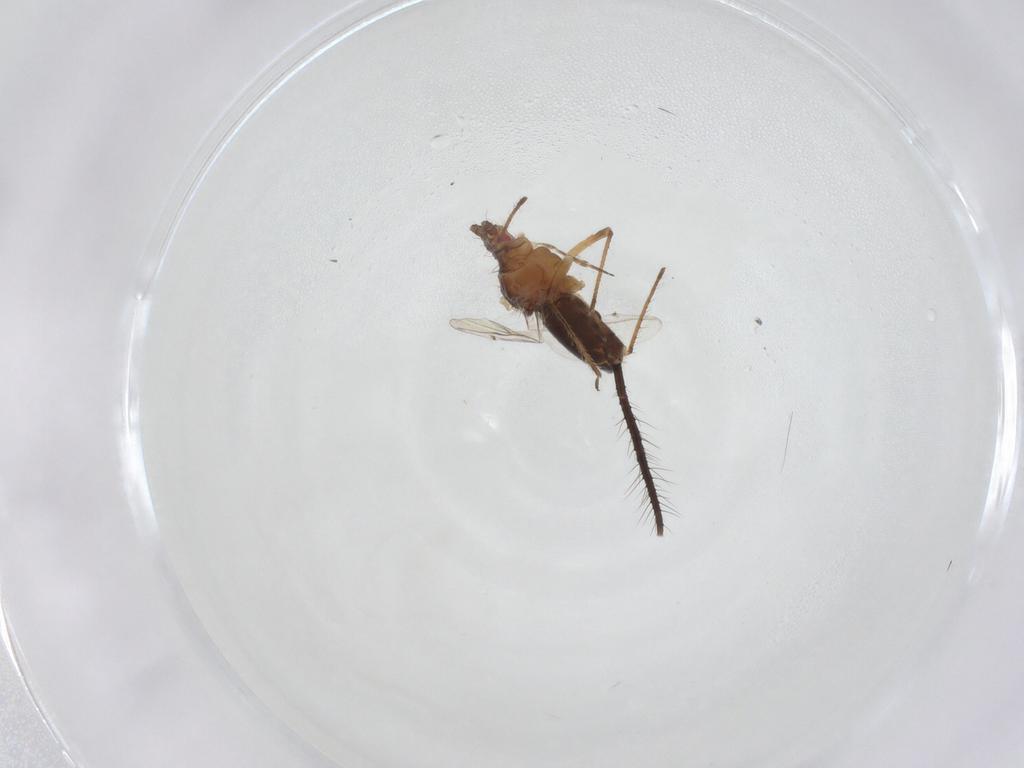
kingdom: Animalia
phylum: Arthropoda
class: Insecta
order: Hemiptera
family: Aphididae
